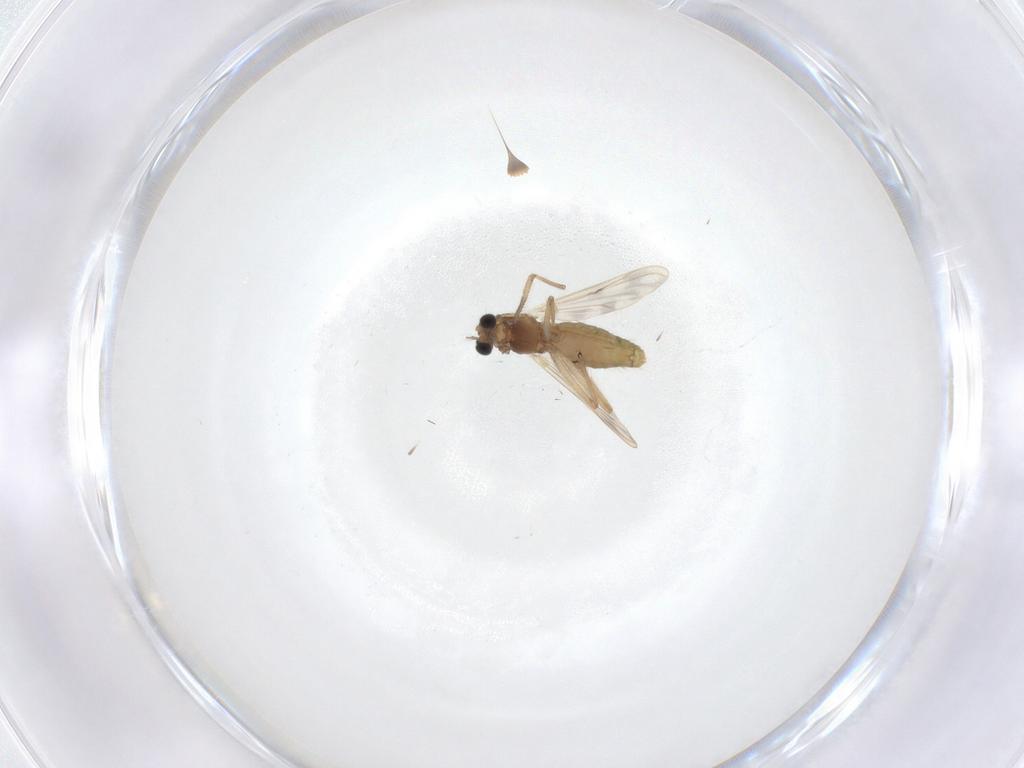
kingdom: Animalia
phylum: Arthropoda
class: Insecta
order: Diptera
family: Chironomidae
